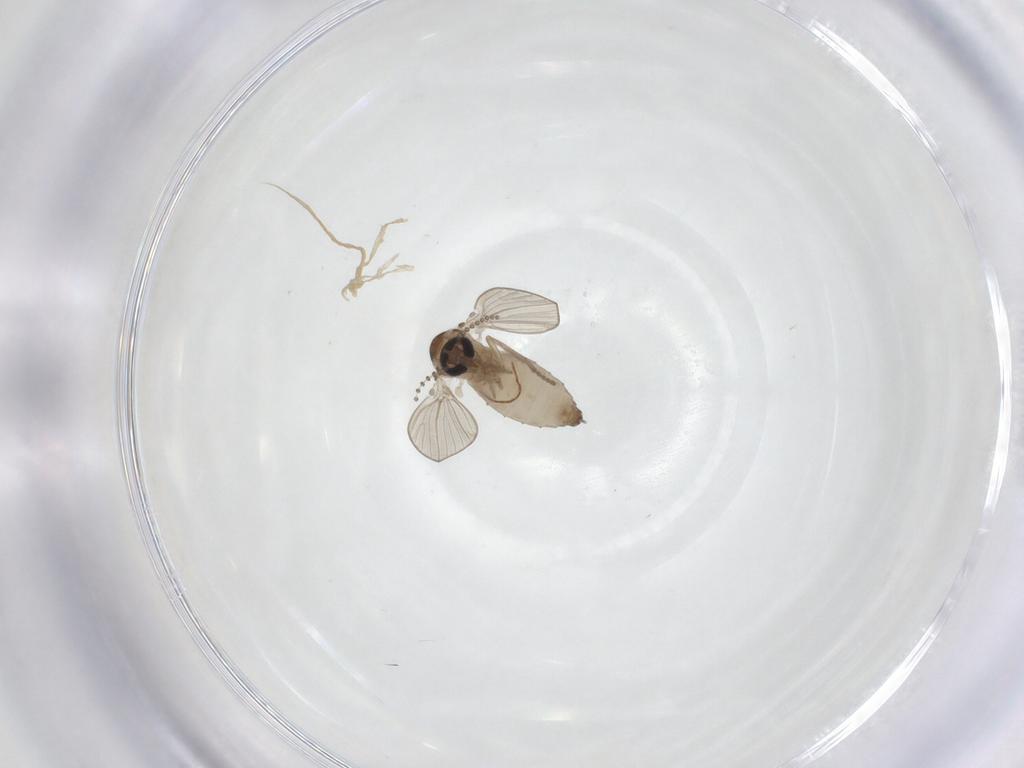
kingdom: Animalia
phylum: Arthropoda
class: Insecta
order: Diptera
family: Psychodidae
